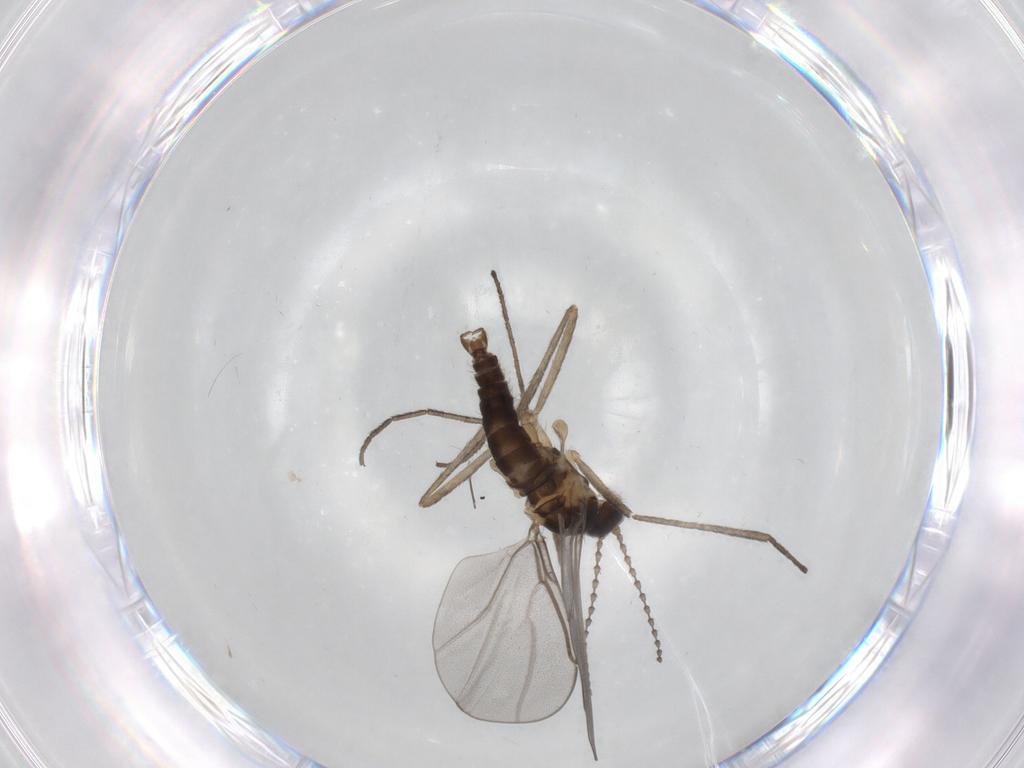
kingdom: Animalia
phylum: Arthropoda
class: Insecta
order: Diptera
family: Cecidomyiidae
